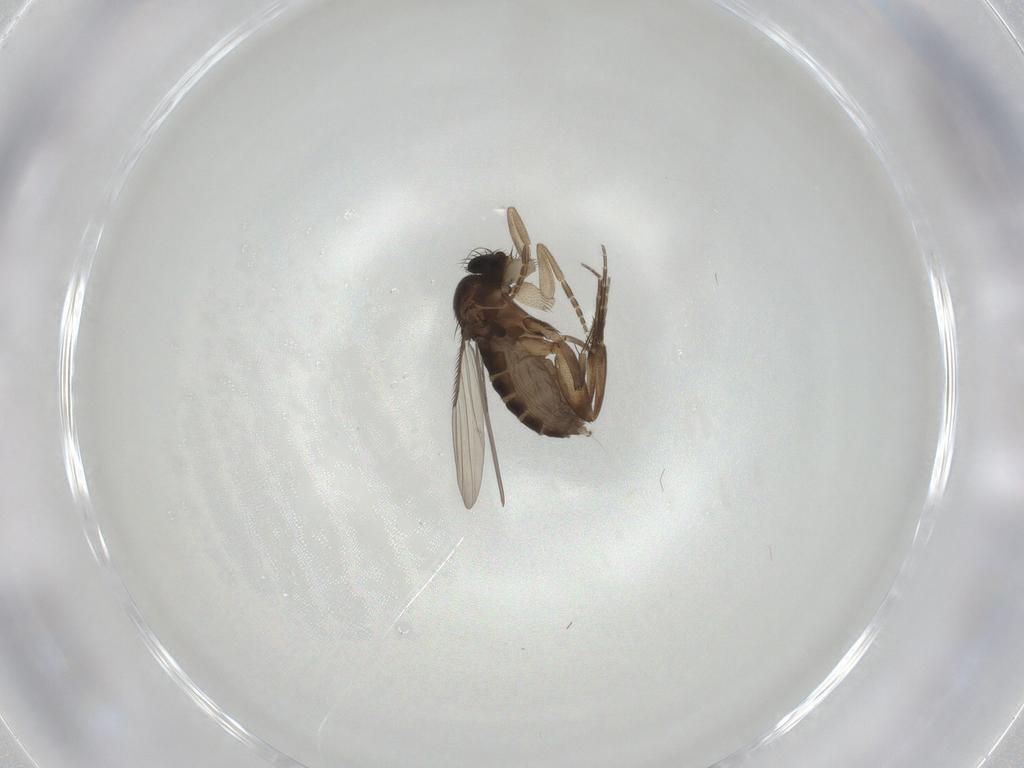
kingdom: Animalia
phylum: Arthropoda
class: Insecta
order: Diptera
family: Phoridae
